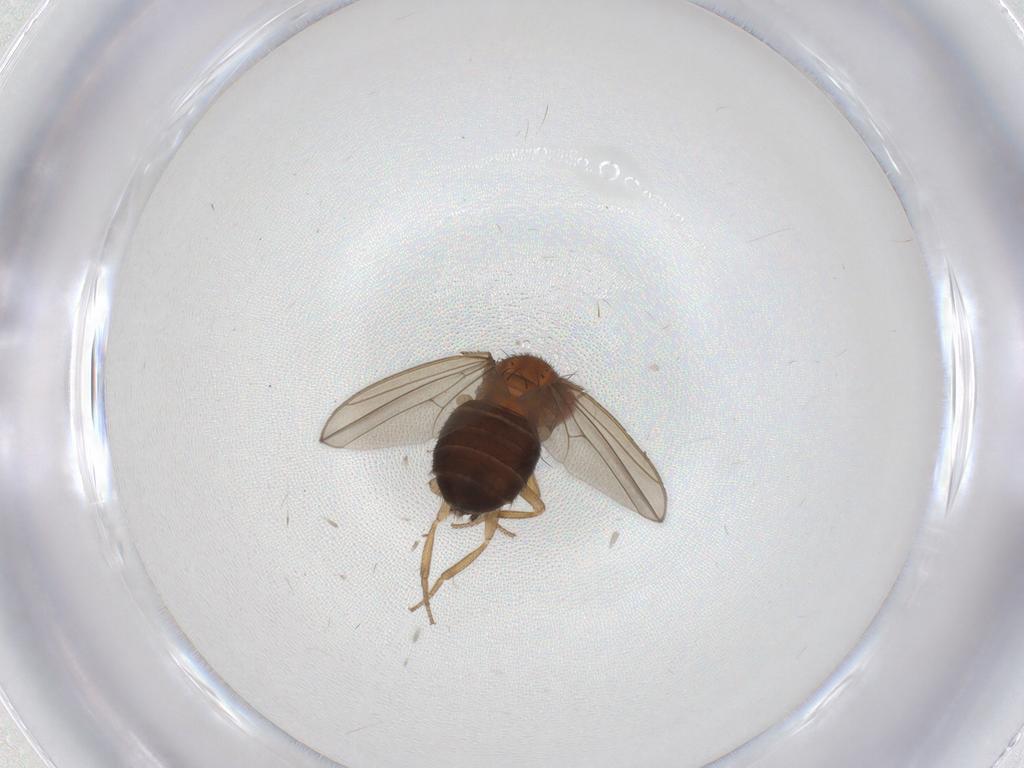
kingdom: Animalia
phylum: Arthropoda
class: Insecta
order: Diptera
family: Drosophilidae
